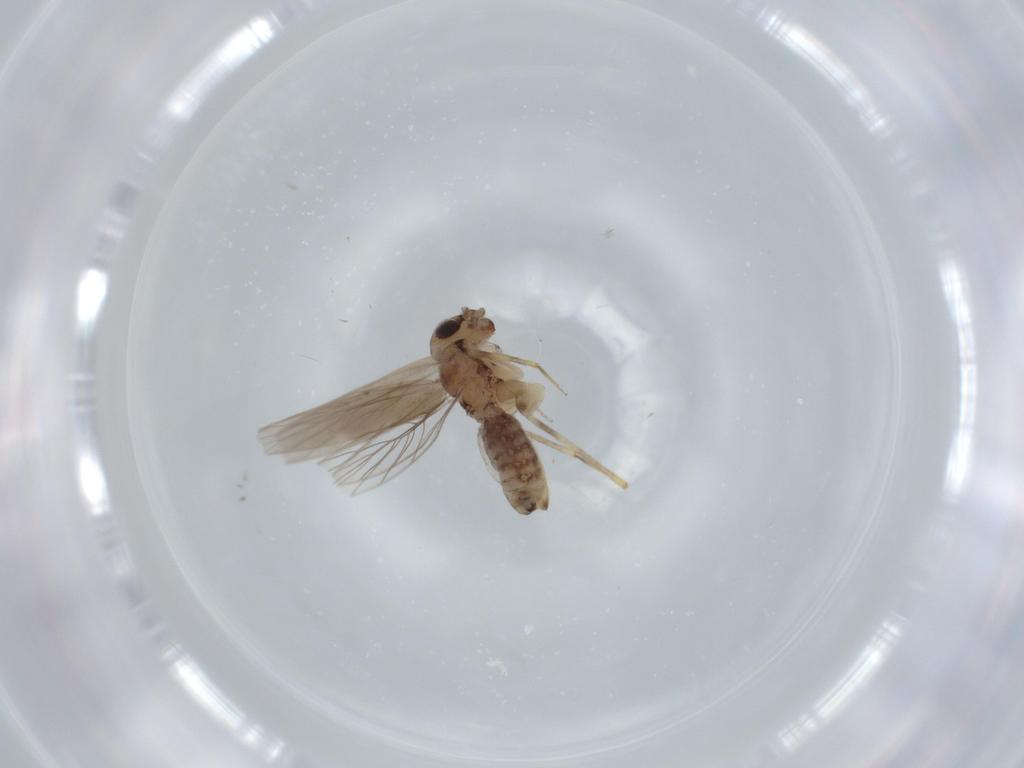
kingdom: Animalia
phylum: Arthropoda
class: Insecta
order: Psocodea
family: Lepidopsocidae
